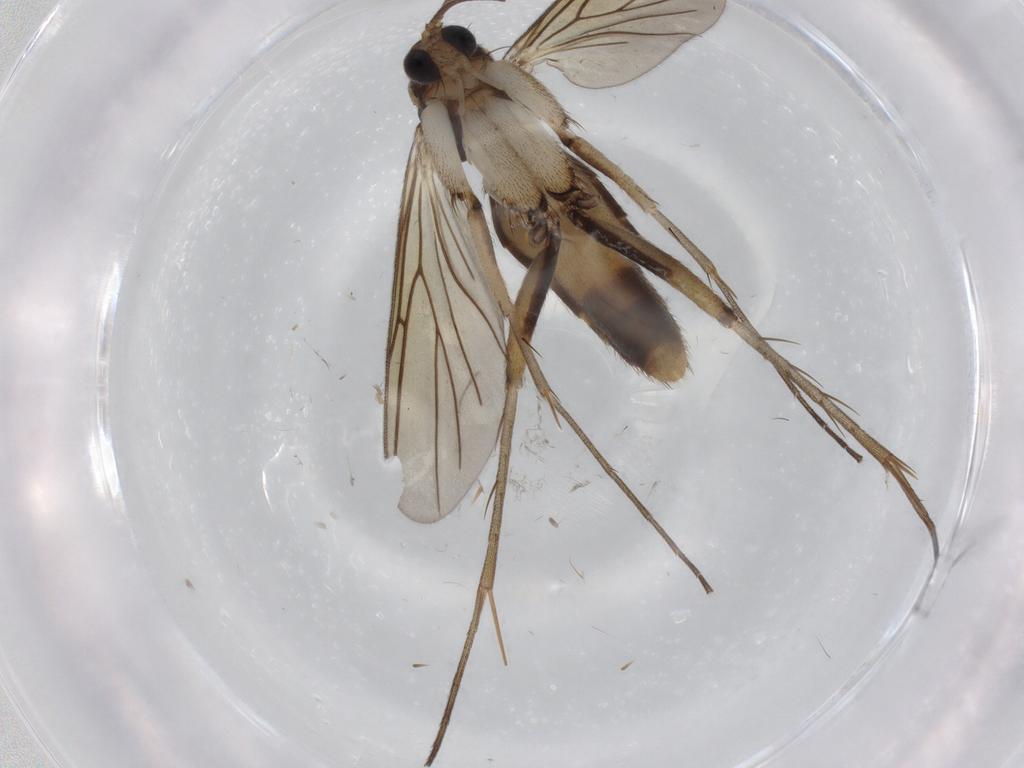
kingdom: Animalia
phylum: Arthropoda
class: Insecta
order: Diptera
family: Mycetophilidae
